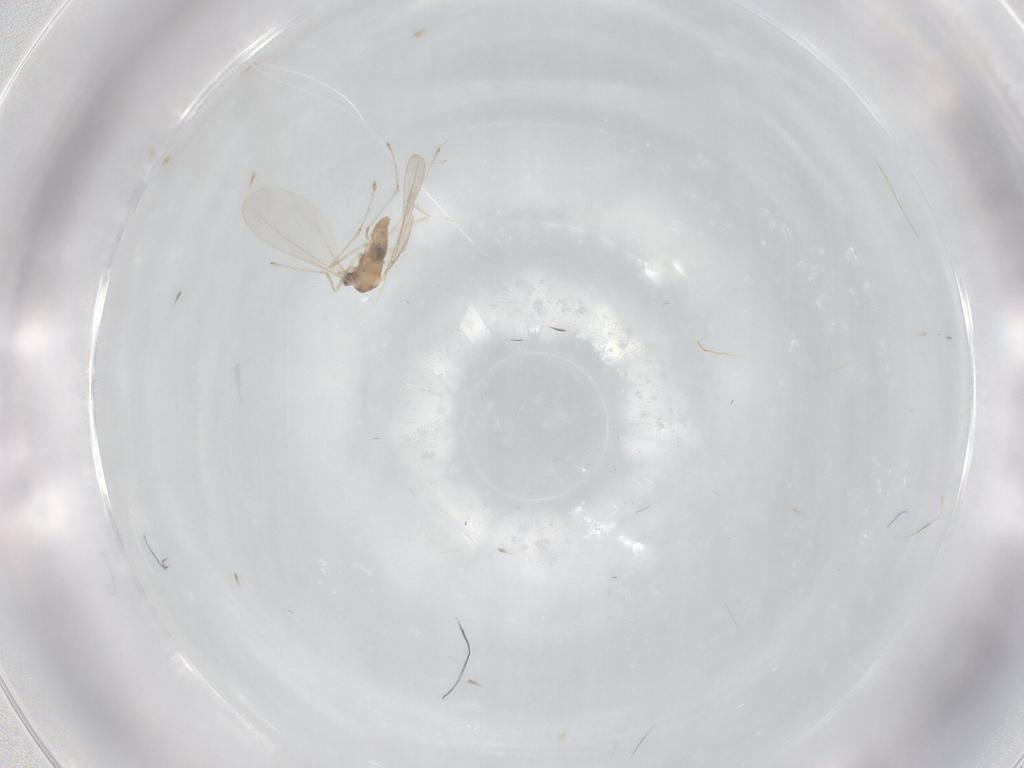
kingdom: Animalia
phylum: Arthropoda
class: Insecta
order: Diptera
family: Cecidomyiidae
